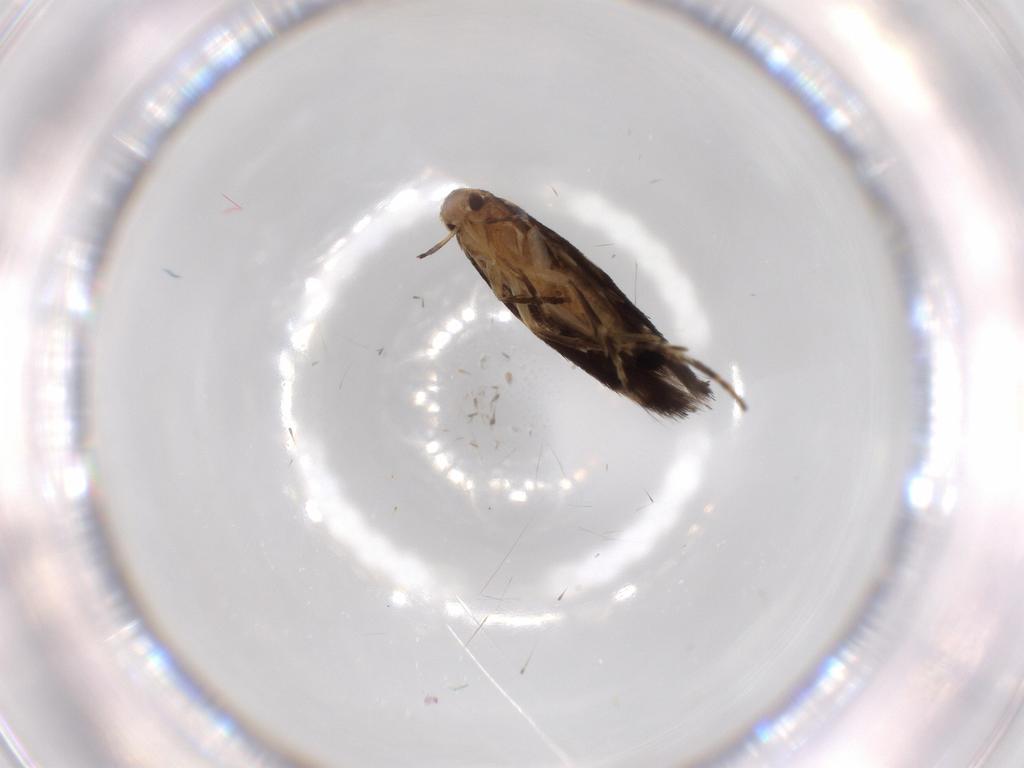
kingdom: Animalia
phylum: Arthropoda
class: Insecta
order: Lepidoptera
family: Cosmopterigidae
